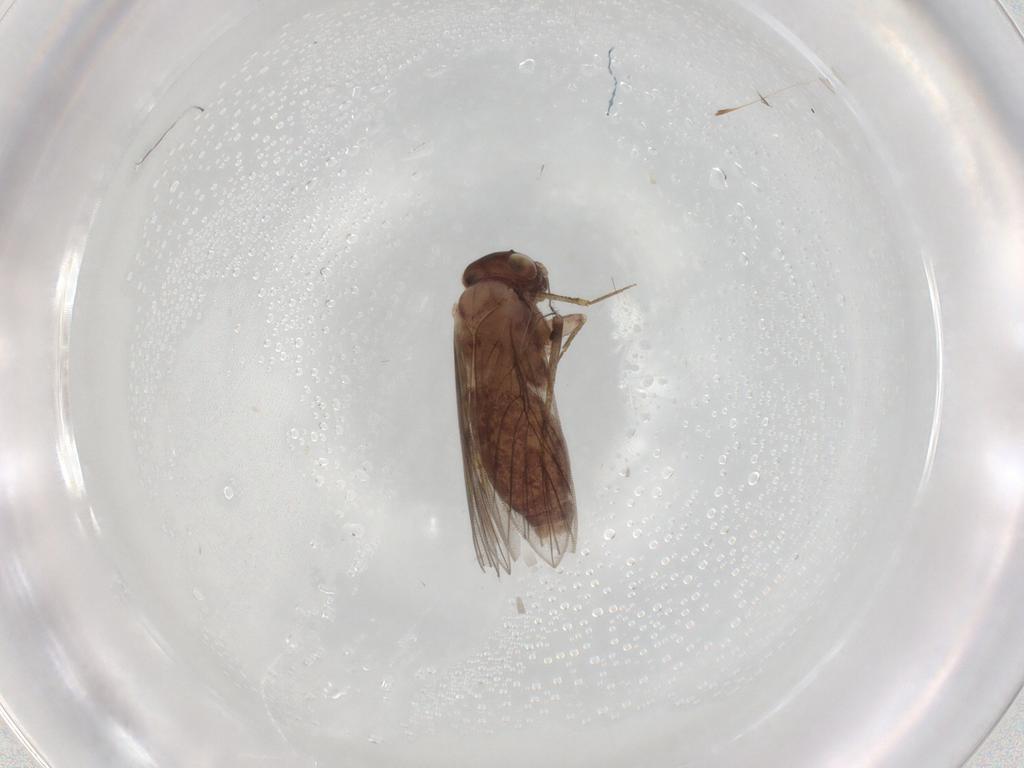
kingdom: Animalia
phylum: Arthropoda
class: Insecta
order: Psocodea
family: Lepidopsocidae
